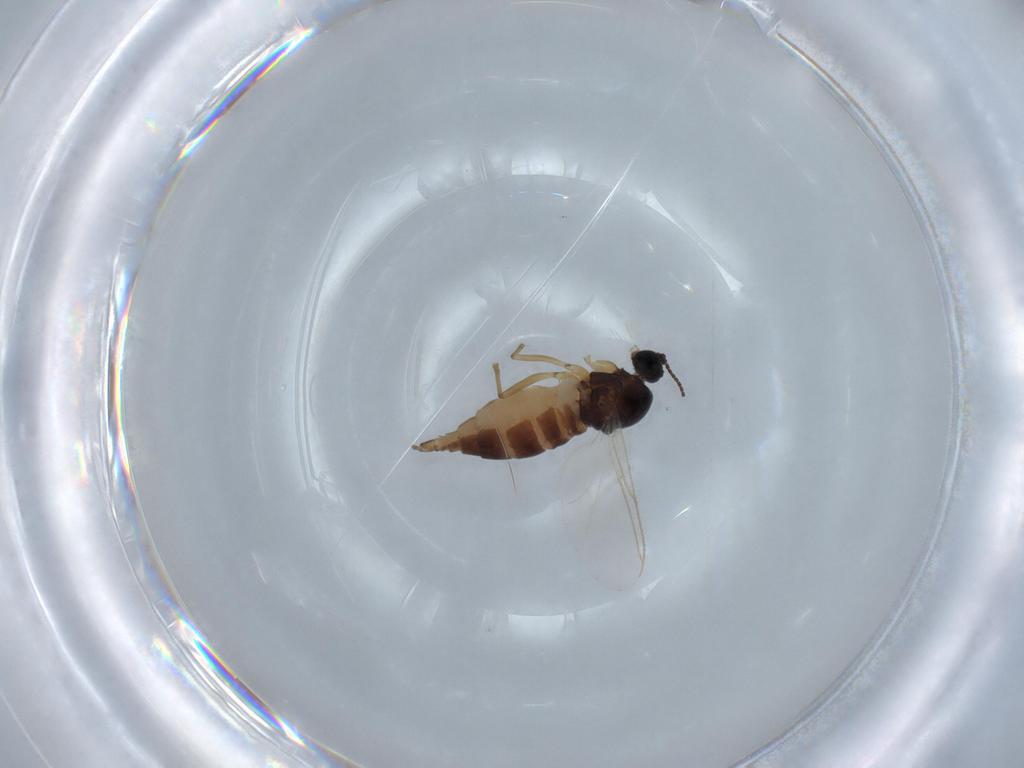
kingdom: Animalia
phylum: Arthropoda
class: Insecta
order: Diptera
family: Sciaridae
